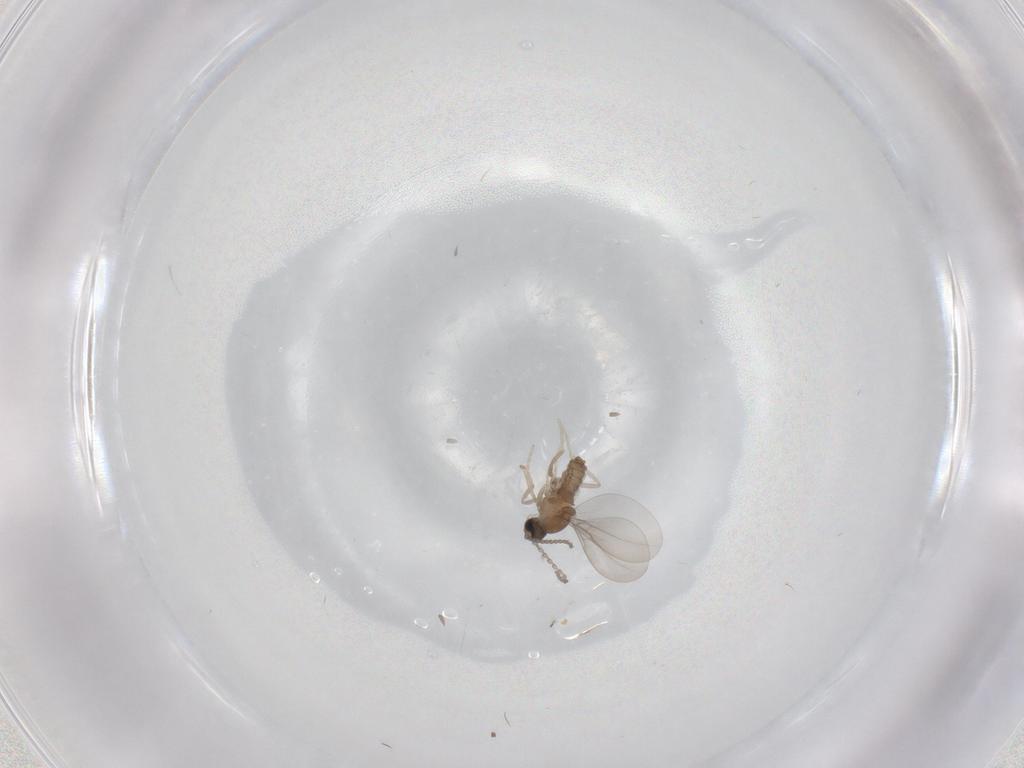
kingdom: Animalia
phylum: Arthropoda
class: Insecta
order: Diptera
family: Cecidomyiidae
